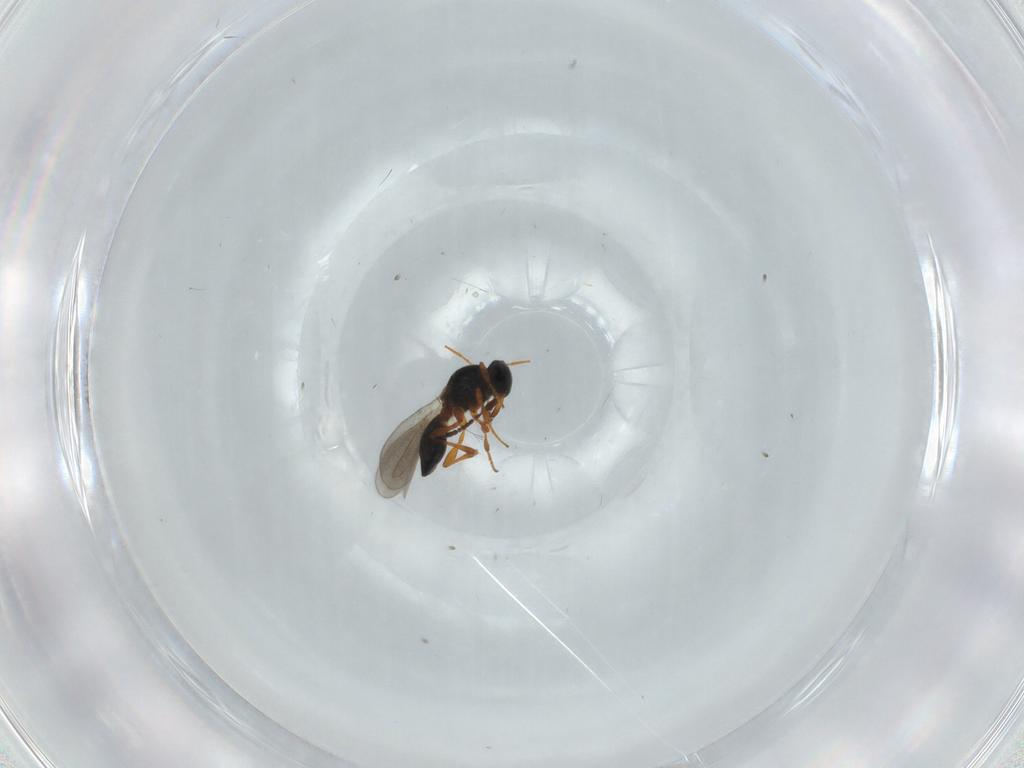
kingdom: Animalia
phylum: Arthropoda
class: Insecta
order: Hymenoptera
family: Platygastridae
